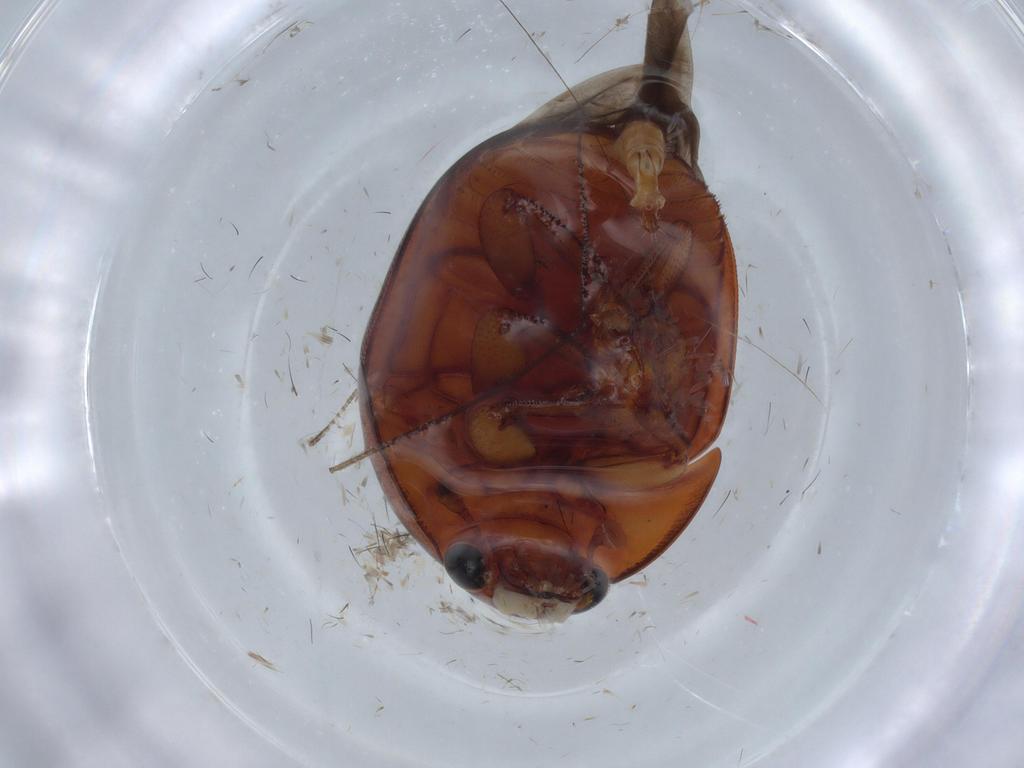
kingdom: Animalia
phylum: Arthropoda
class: Insecta
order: Coleoptera
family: Nitidulidae
